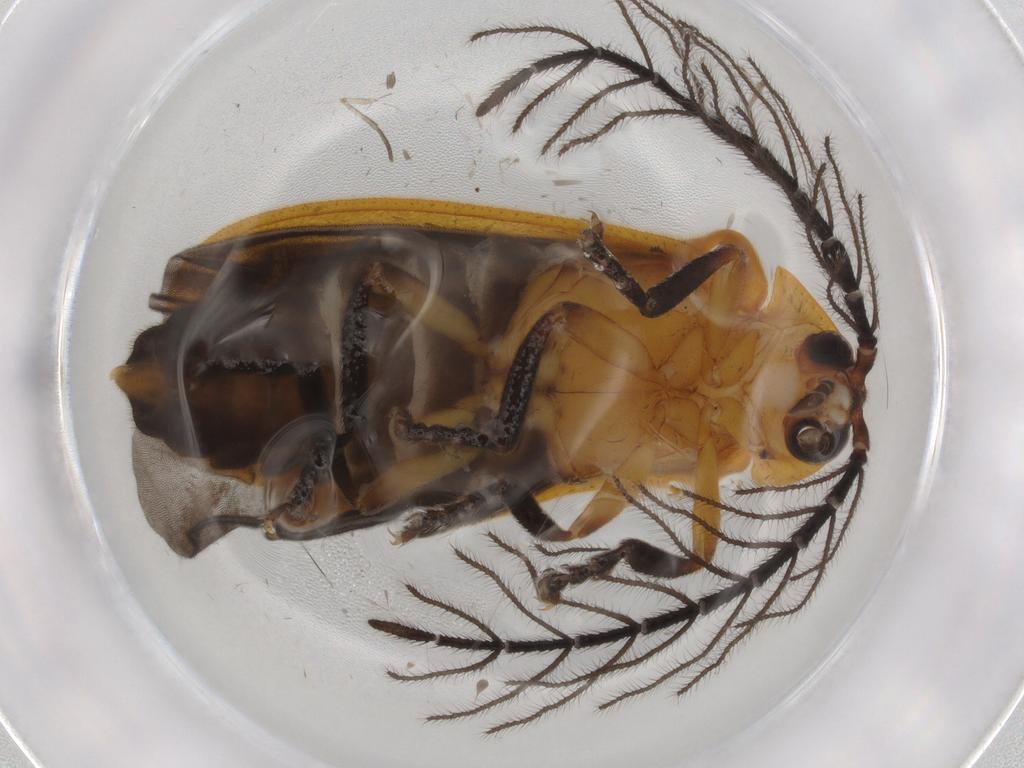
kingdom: Animalia
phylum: Arthropoda
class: Insecta
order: Coleoptera
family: Lampyridae
